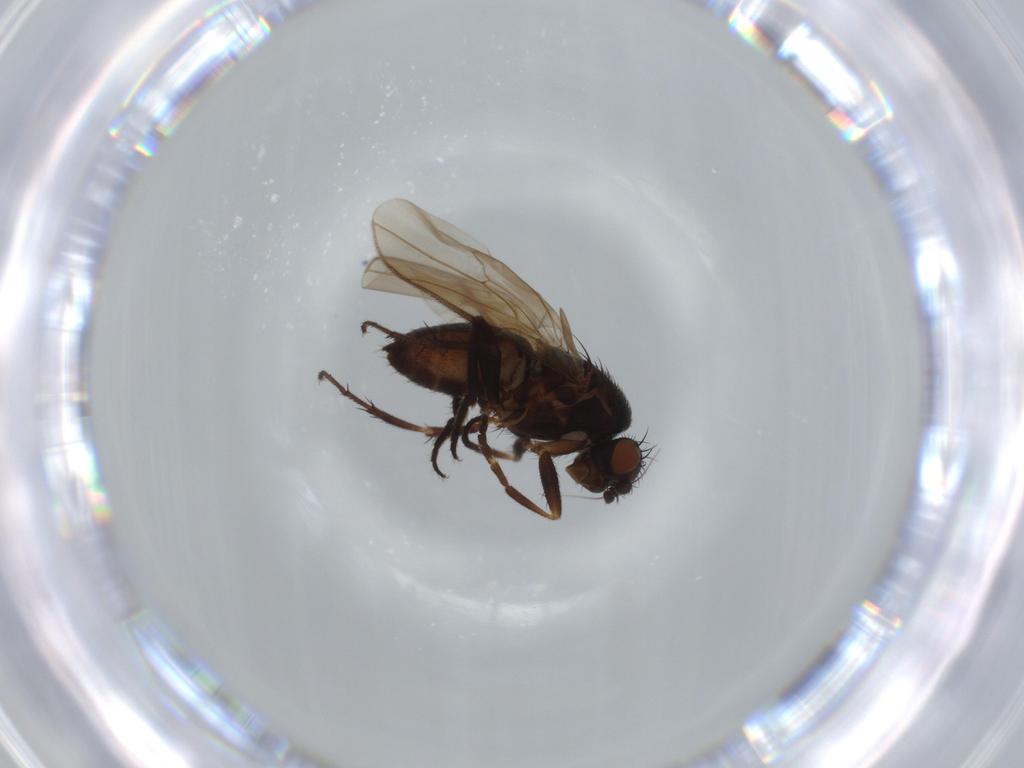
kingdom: Animalia
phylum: Arthropoda
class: Insecta
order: Diptera
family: Sphaeroceridae
